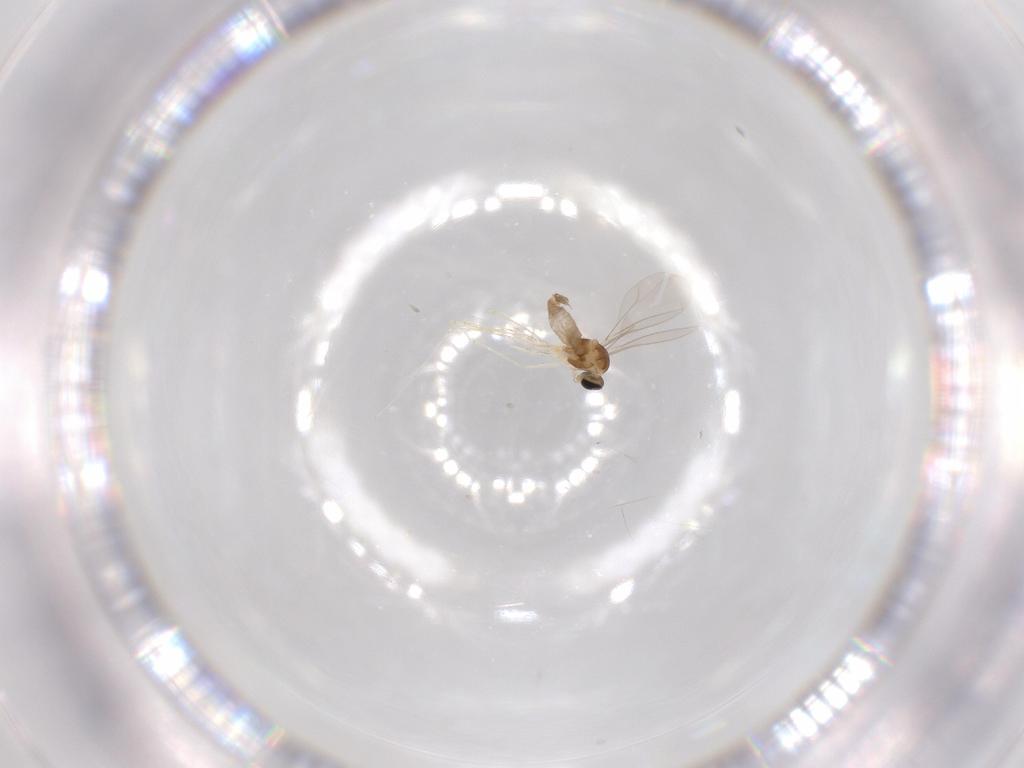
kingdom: Animalia
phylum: Arthropoda
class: Insecta
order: Diptera
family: Cecidomyiidae
